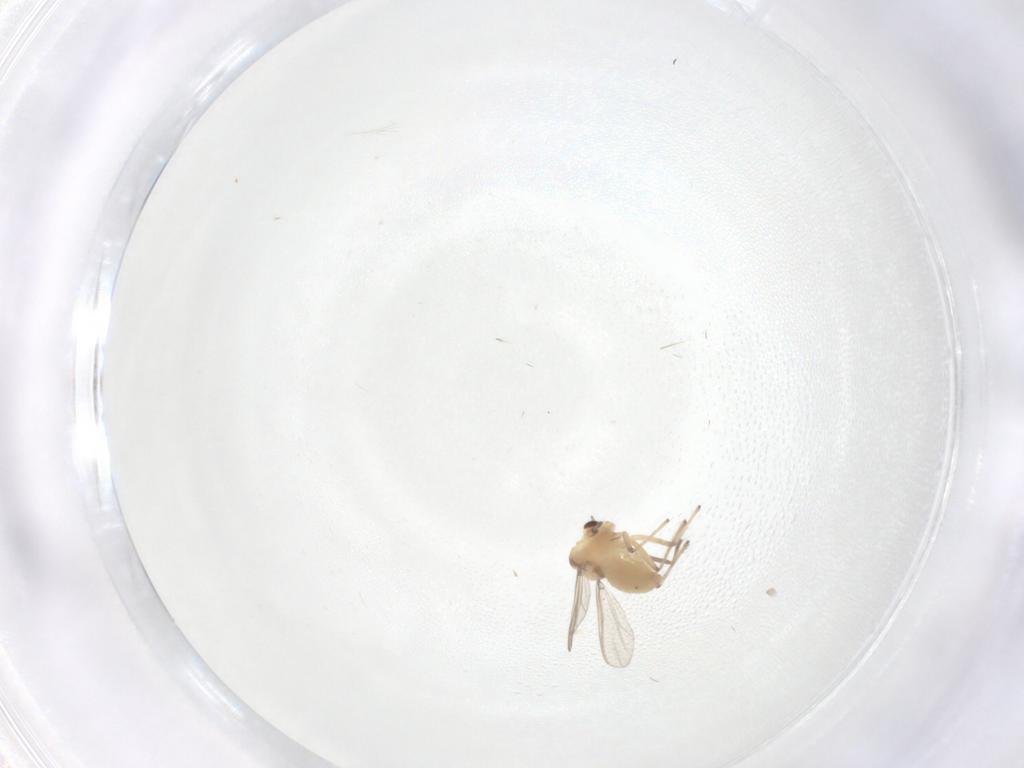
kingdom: Animalia
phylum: Arthropoda
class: Insecta
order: Diptera
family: Chironomidae
